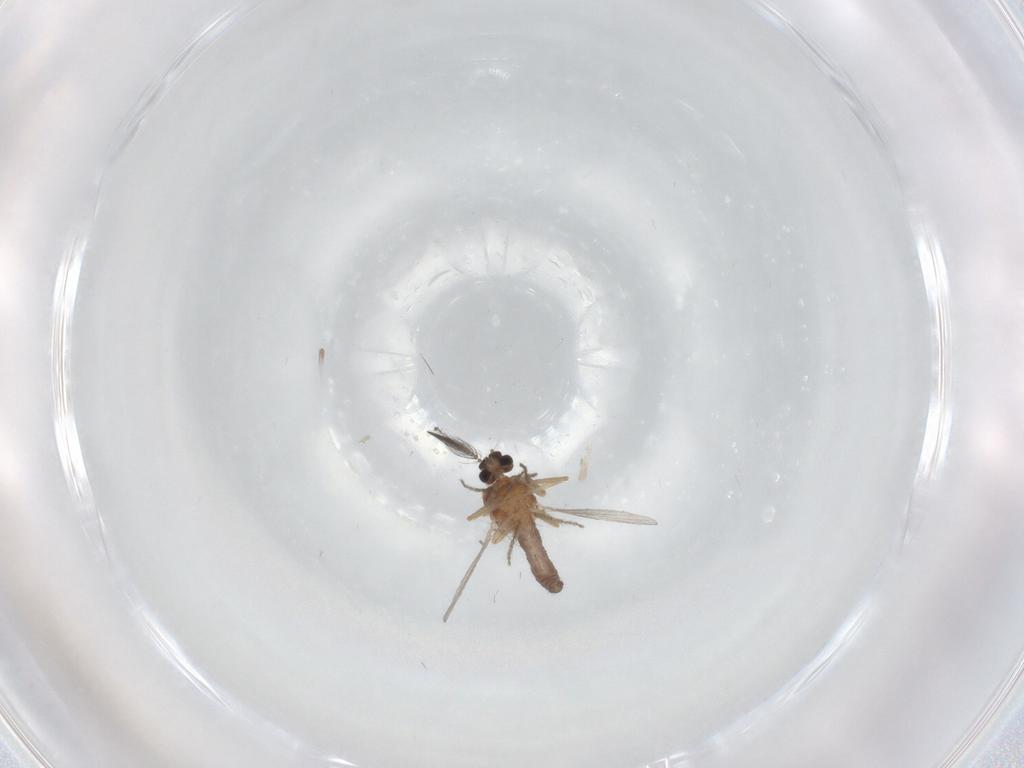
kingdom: Animalia
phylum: Arthropoda
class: Insecta
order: Diptera
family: Ceratopogonidae
